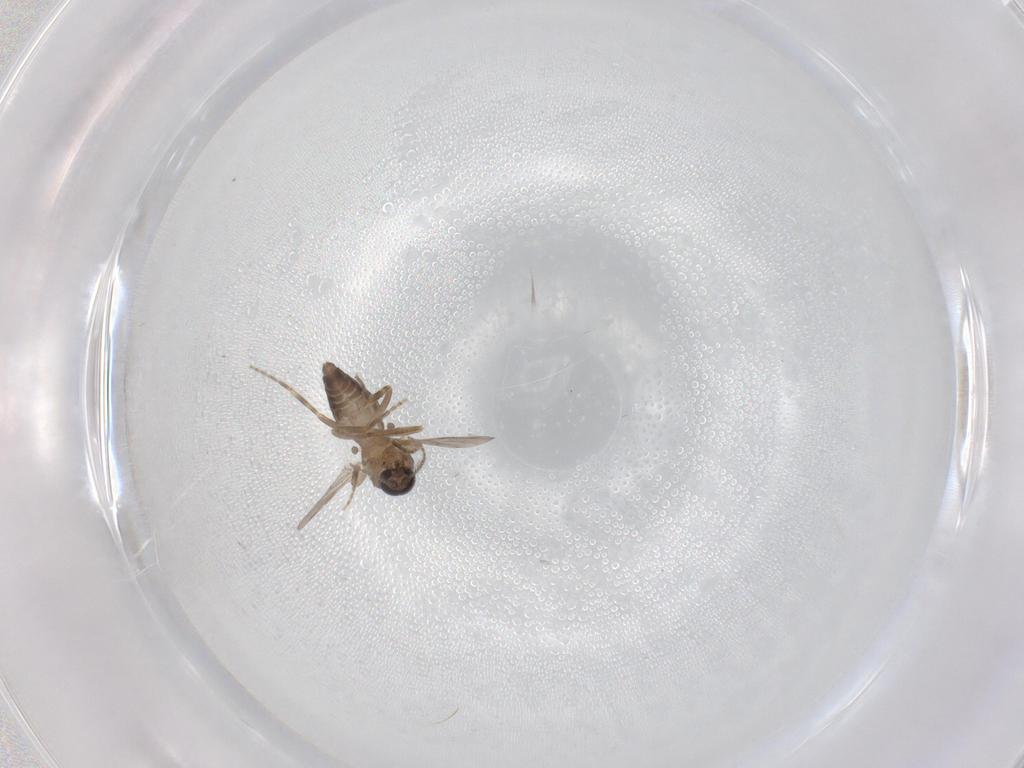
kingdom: Animalia
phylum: Arthropoda
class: Insecta
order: Diptera
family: Ceratopogonidae
